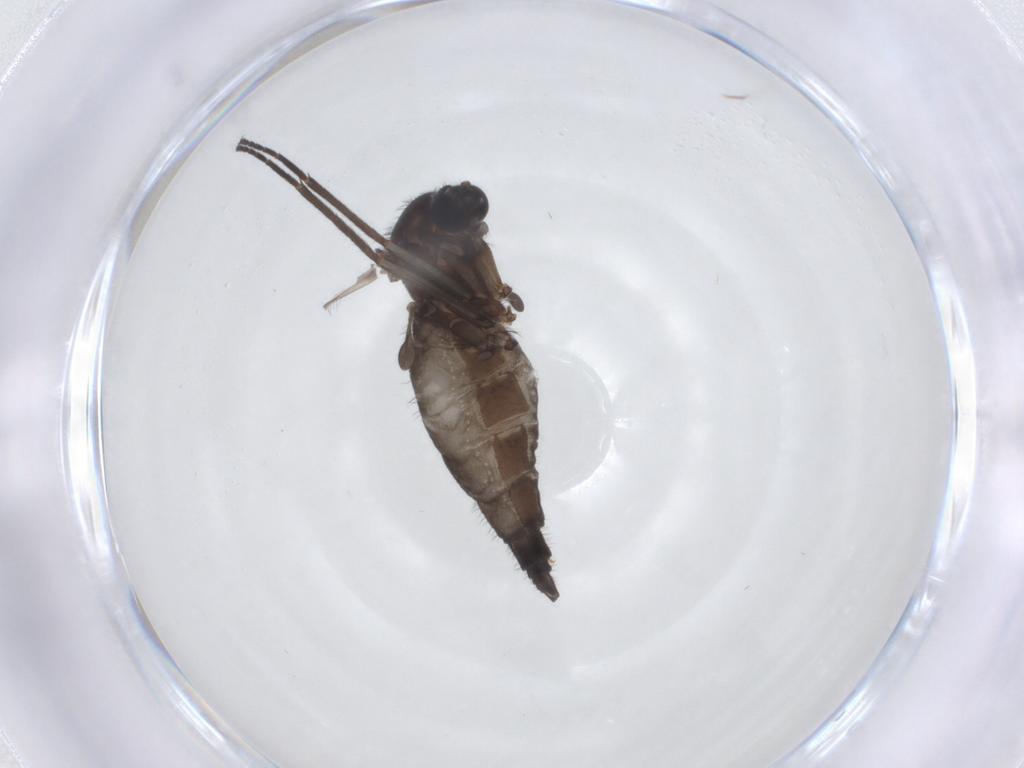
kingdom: Animalia
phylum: Arthropoda
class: Insecta
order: Diptera
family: Sciaridae
